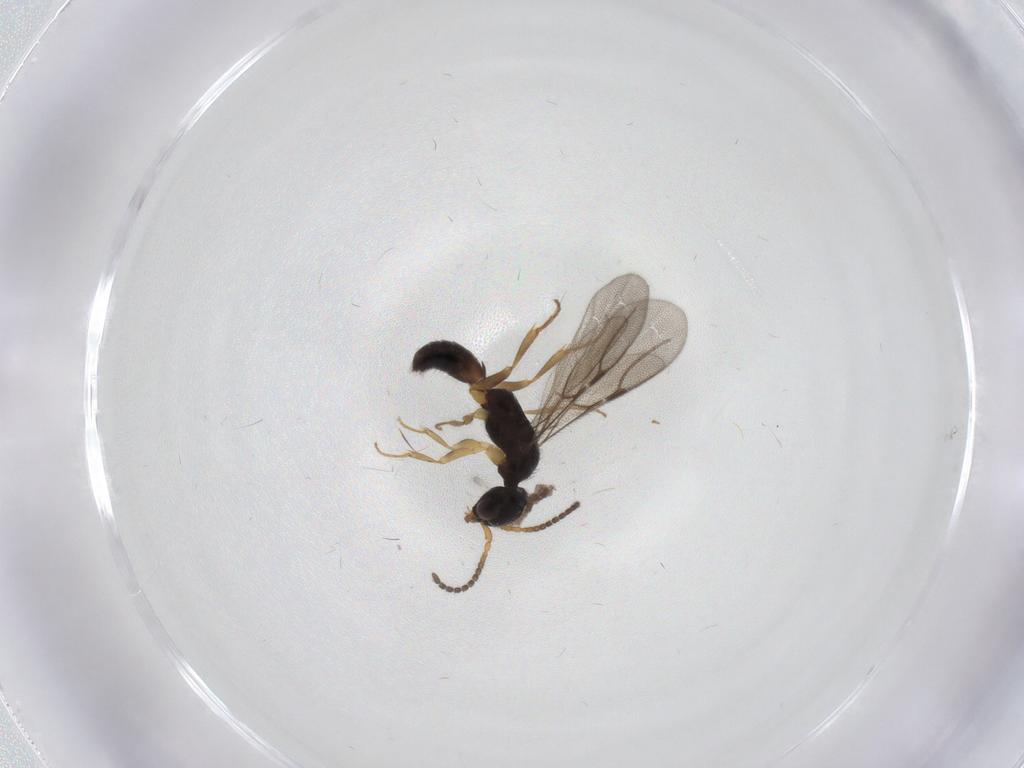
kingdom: Animalia
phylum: Arthropoda
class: Insecta
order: Hymenoptera
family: Bethylidae
